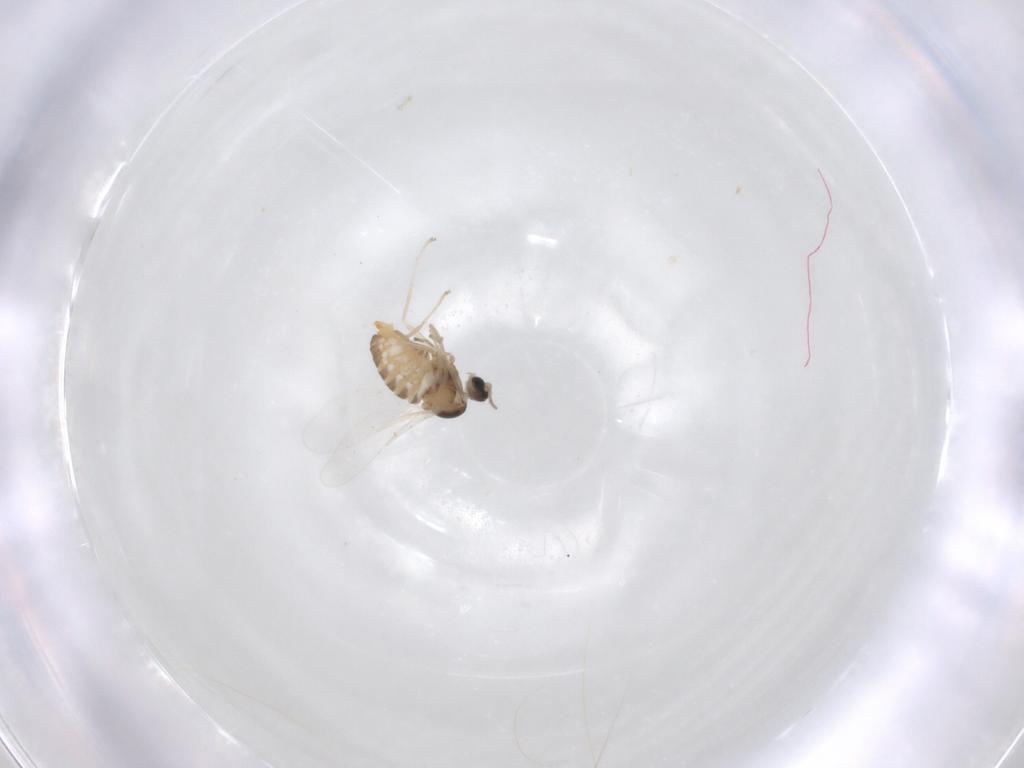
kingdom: Animalia
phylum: Arthropoda
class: Insecta
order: Diptera
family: Cecidomyiidae
